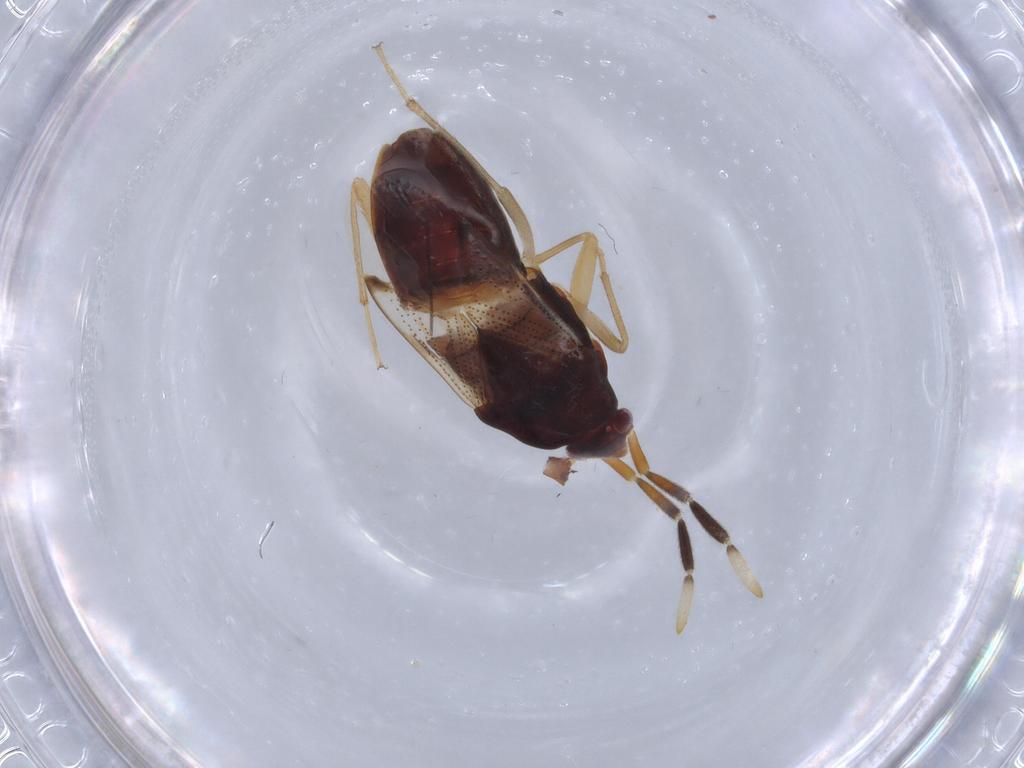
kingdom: Animalia
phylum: Arthropoda
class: Insecta
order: Hemiptera
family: Rhyparochromidae
